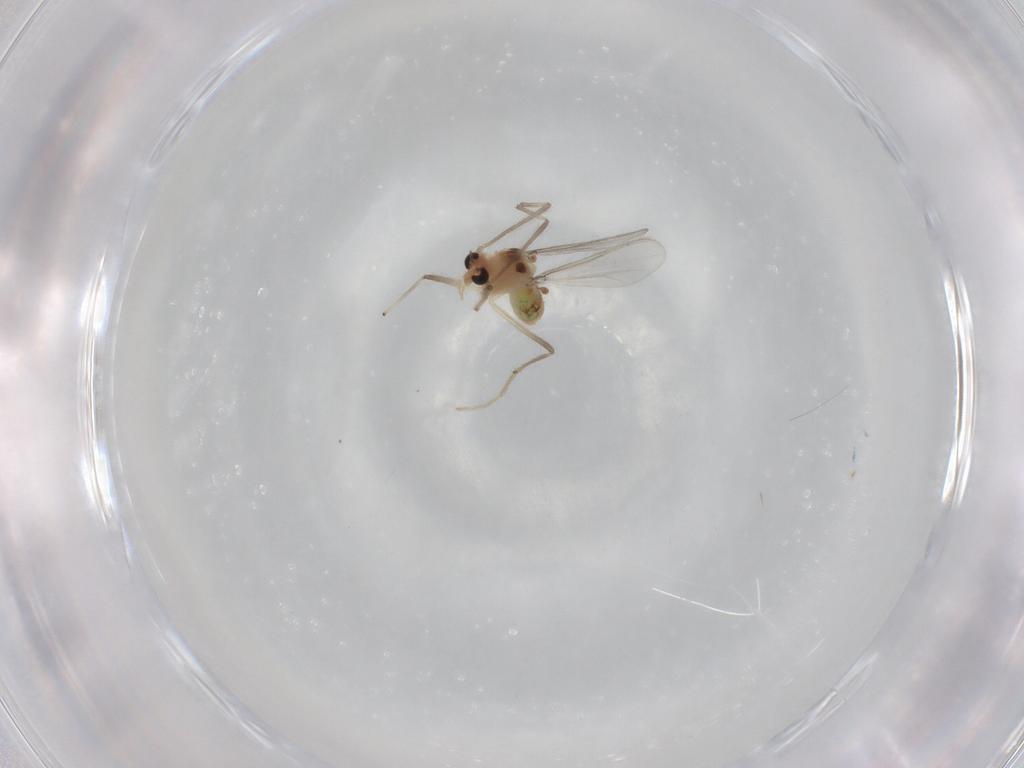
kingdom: Animalia
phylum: Arthropoda
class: Insecta
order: Diptera
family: Chironomidae
